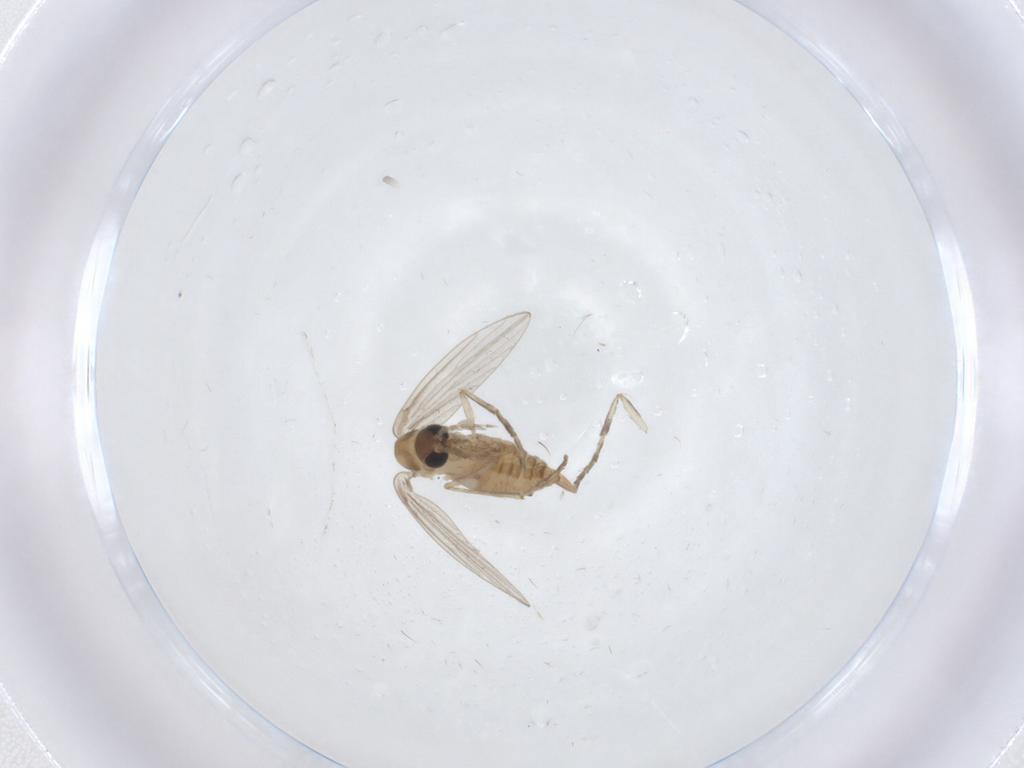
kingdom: Animalia
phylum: Arthropoda
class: Insecta
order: Diptera
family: Psychodidae
